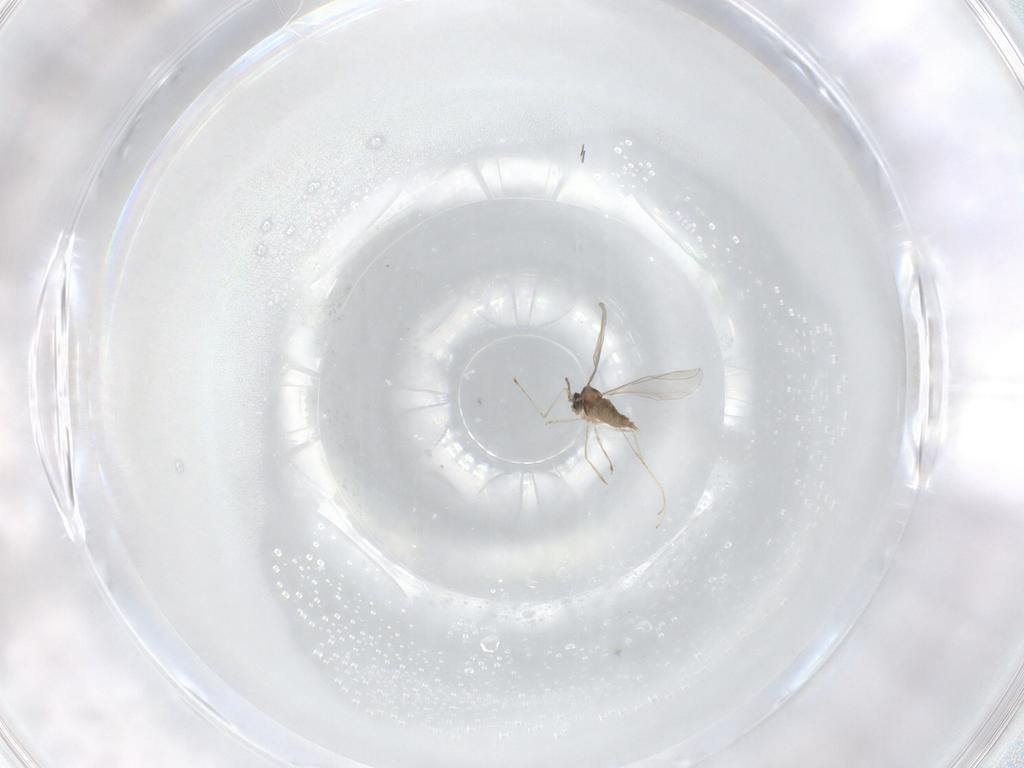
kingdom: Animalia
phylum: Arthropoda
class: Insecta
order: Diptera
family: Cecidomyiidae
